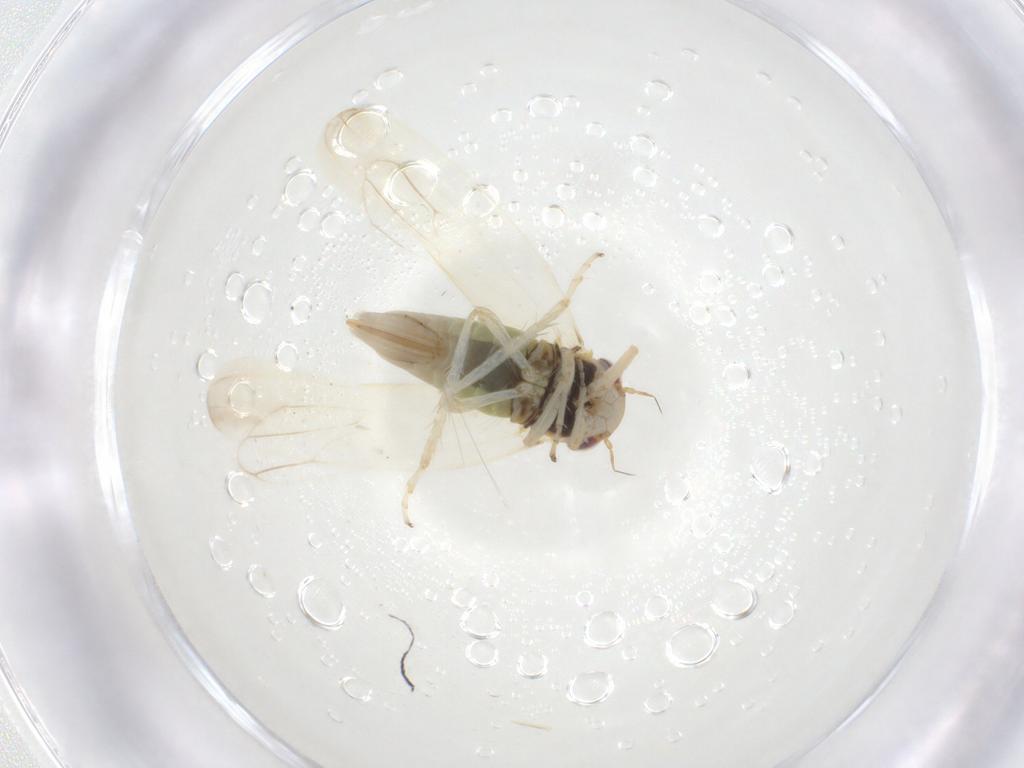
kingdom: Animalia
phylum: Arthropoda
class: Insecta
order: Hemiptera
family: Cicadellidae
